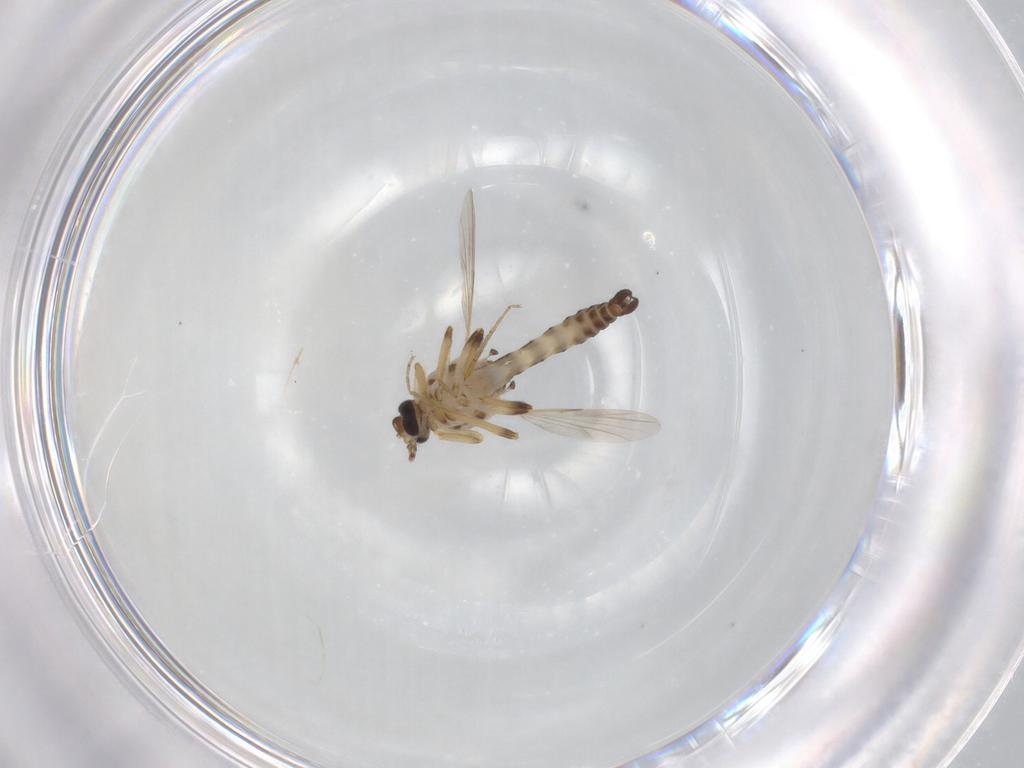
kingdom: Animalia
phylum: Arthropoda
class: Insecta
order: Diptera
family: Ceratopogonidae
